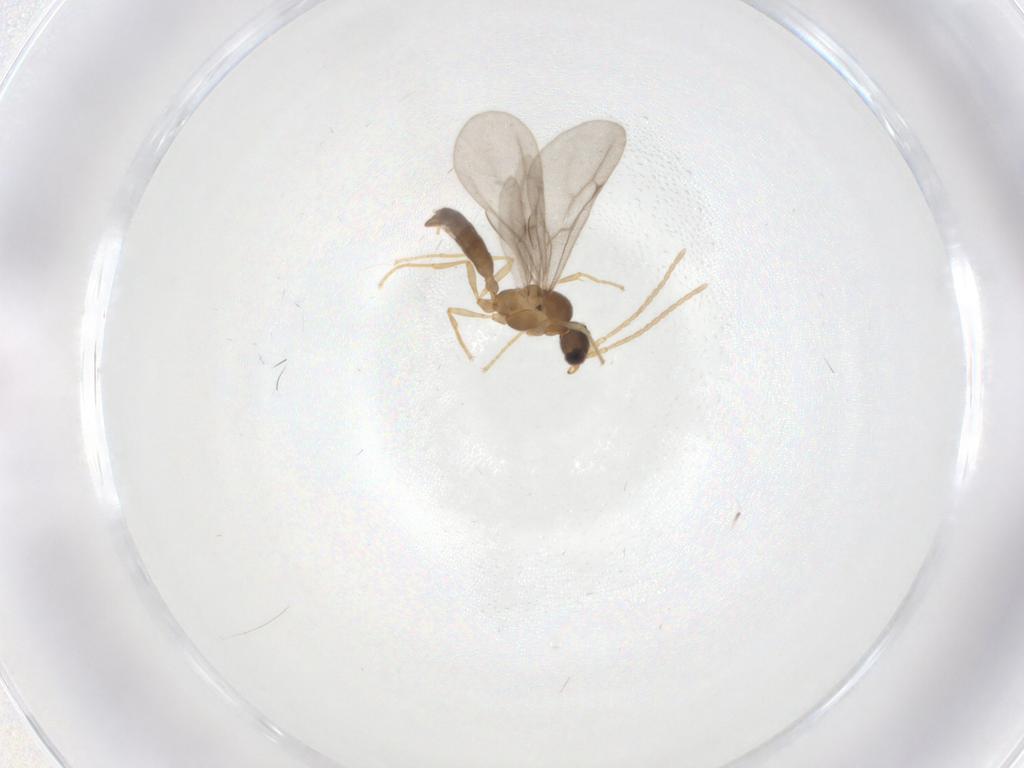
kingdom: Animalia
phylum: Arthropoda
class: Insecta
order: Hymenoptera
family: Formicidae
